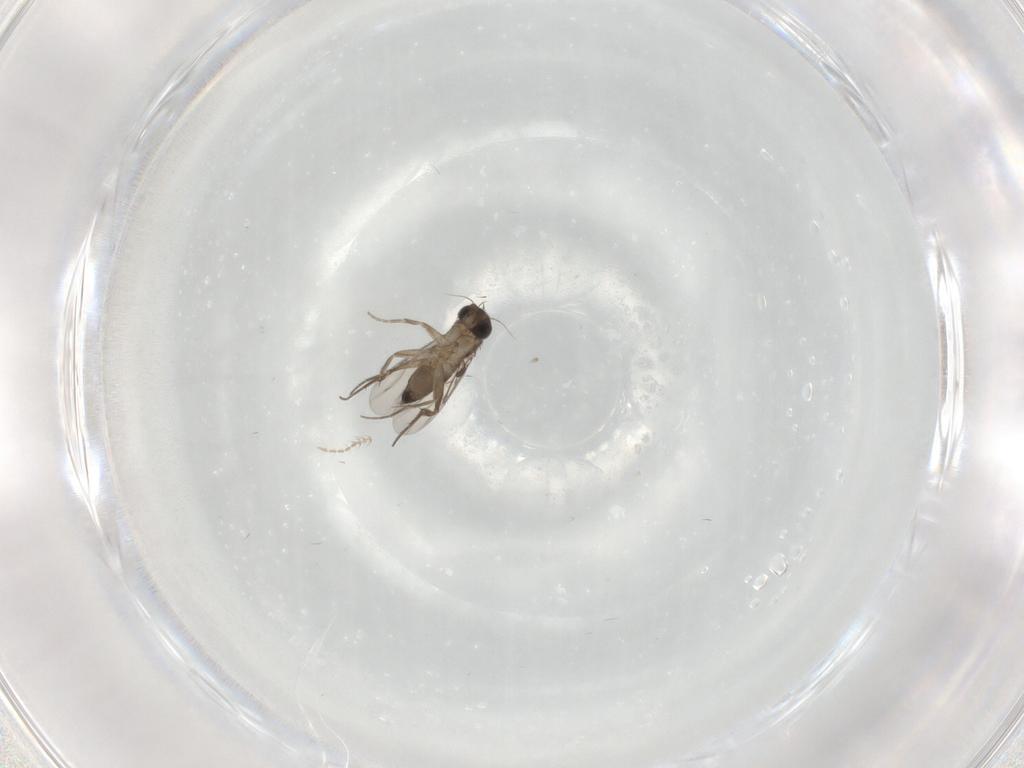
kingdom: Animalia
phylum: Arthropoda
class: Insecta
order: Diptera
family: Phoridae
